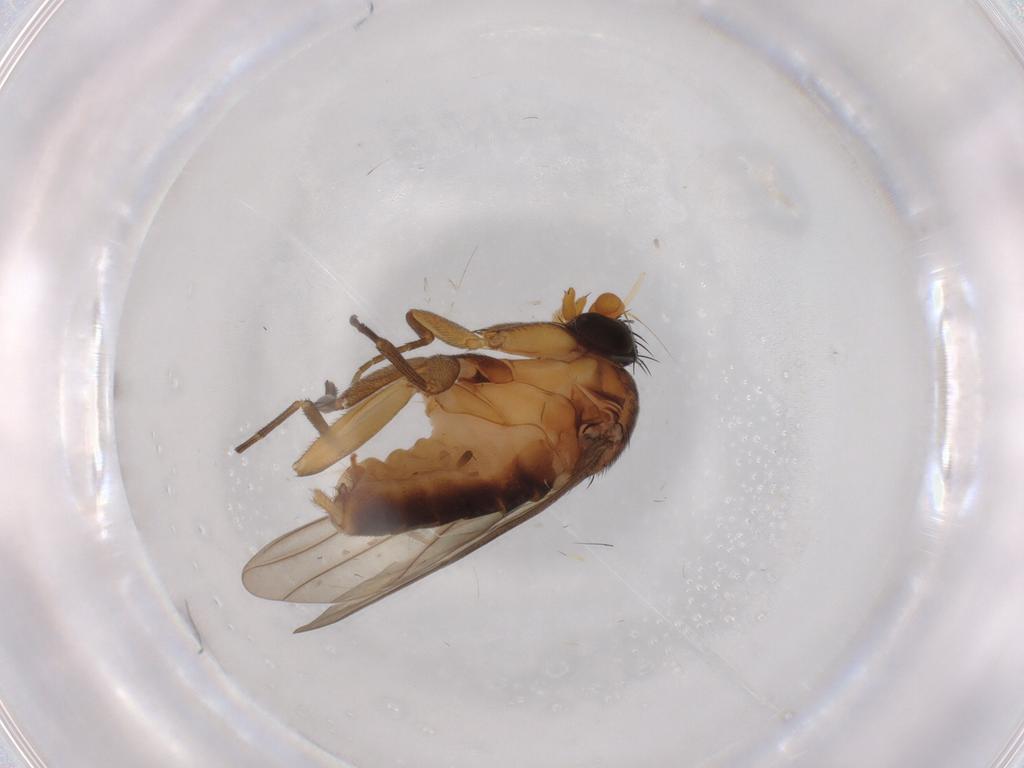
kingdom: Animalia
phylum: Arthropoda
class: Insecta
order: Diptera
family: Phoridae
